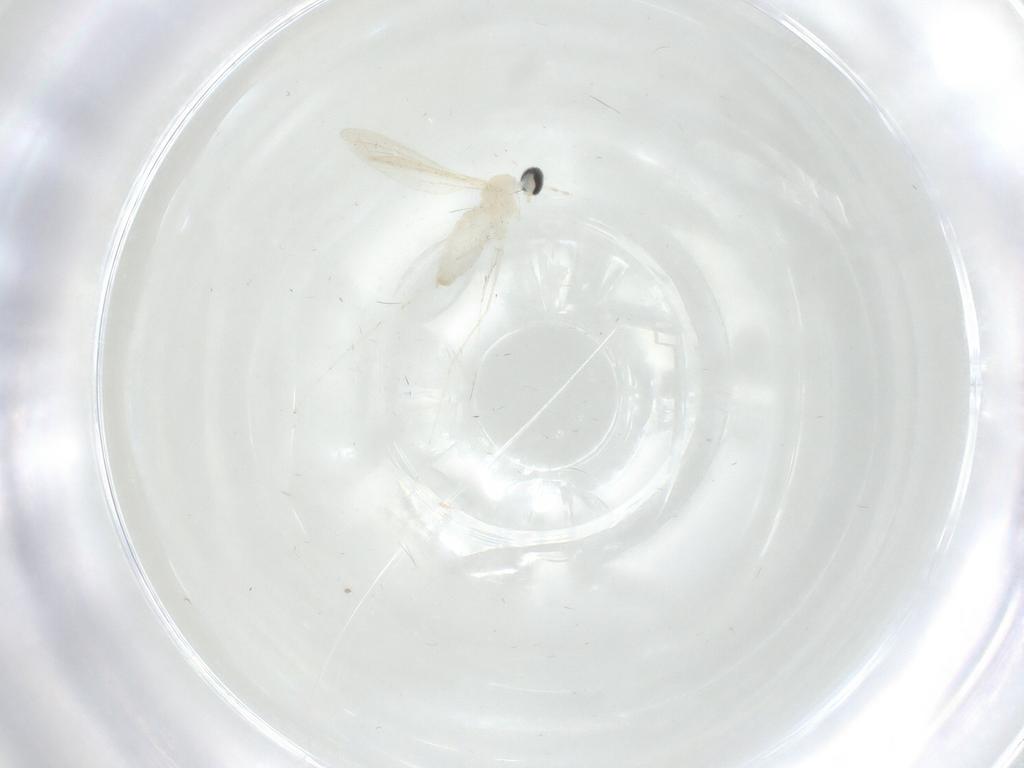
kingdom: Animalia
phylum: Arthropoda
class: Insecta
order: Diptera
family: Cecidomyiidae
